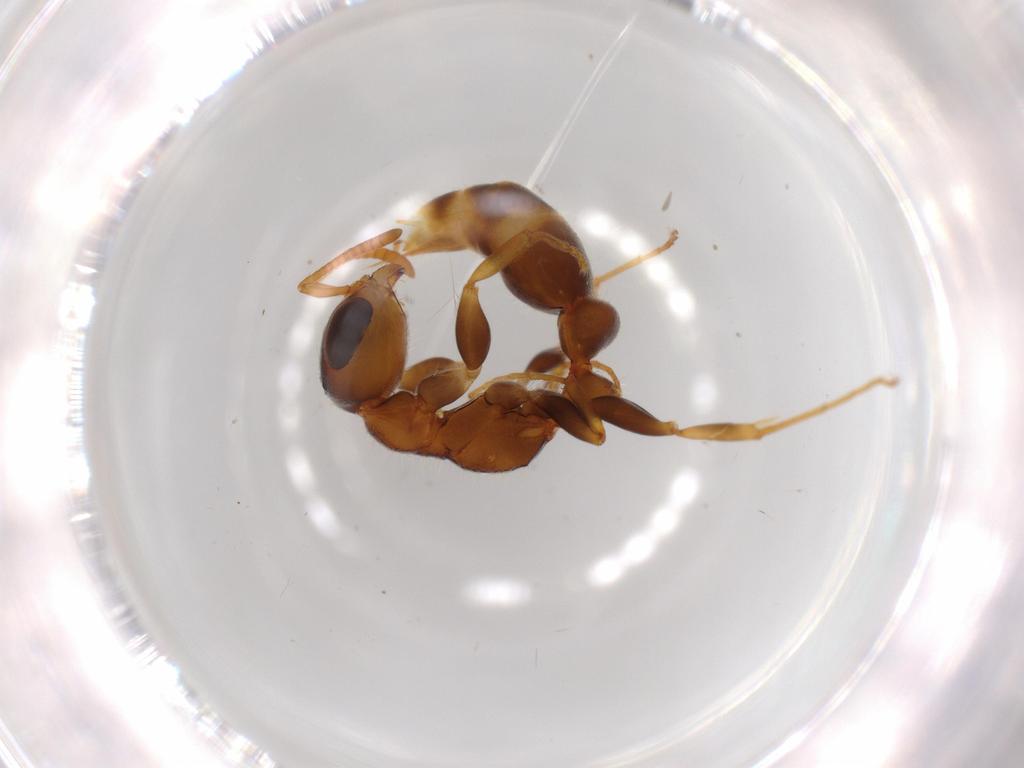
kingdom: Animalia
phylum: Arthropoda
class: Insecta
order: Hymenoptera
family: Formicidae
